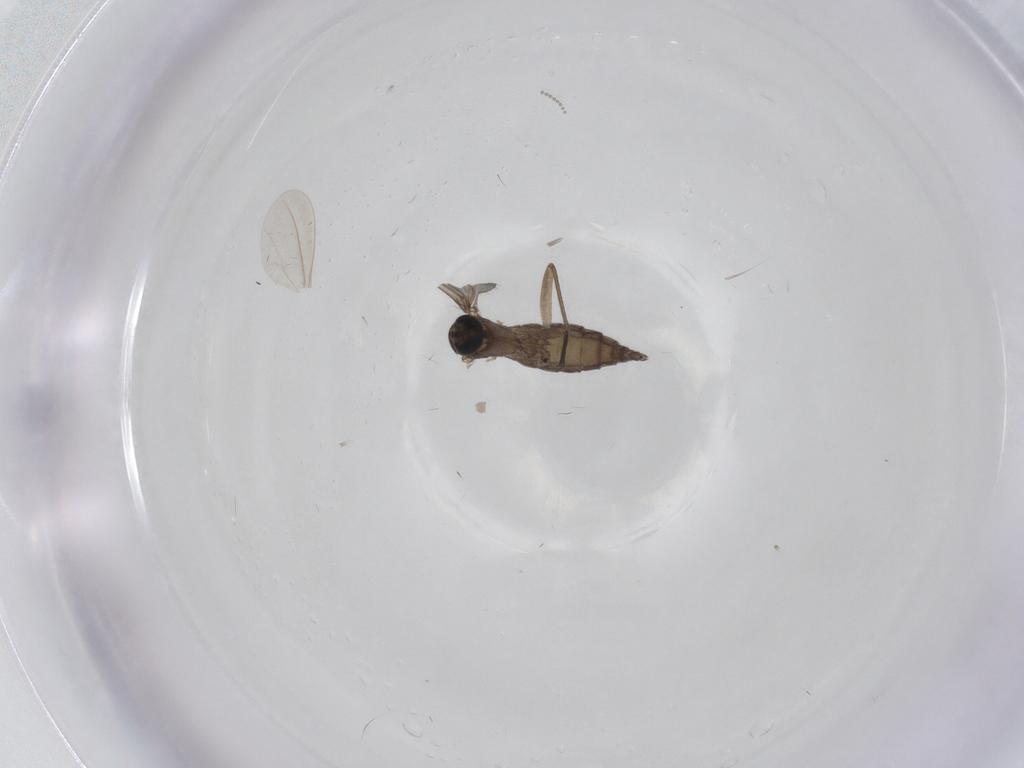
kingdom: Animalia
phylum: Arthropoda
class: Insecta
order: Diptera
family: Sciaridae
